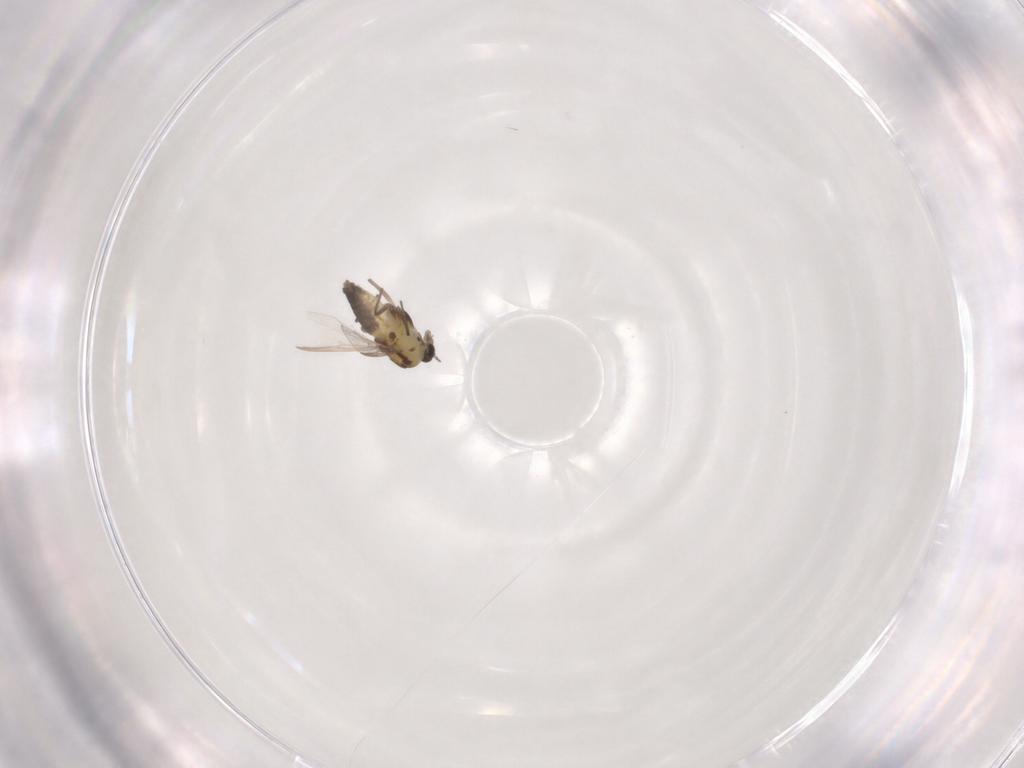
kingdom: Animalia
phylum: Arthropoda
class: Insecta
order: Diptera
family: Chironomidae
